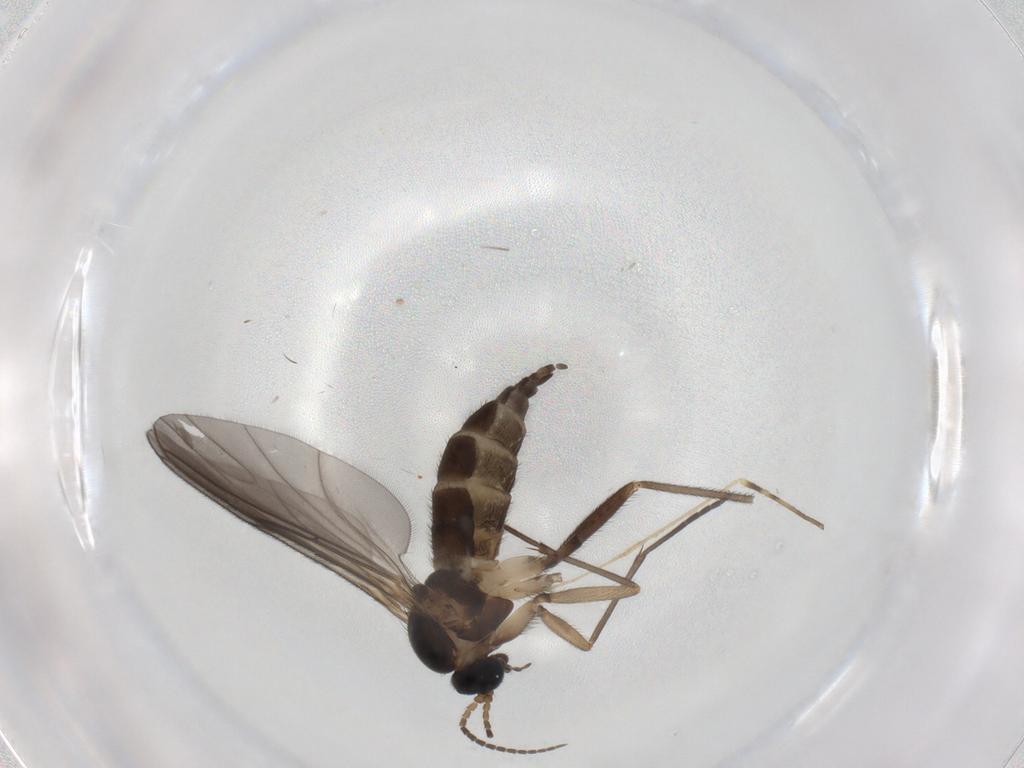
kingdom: Animalia
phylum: Arthropoda
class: Insecta
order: Diptera
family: Sciaridae
